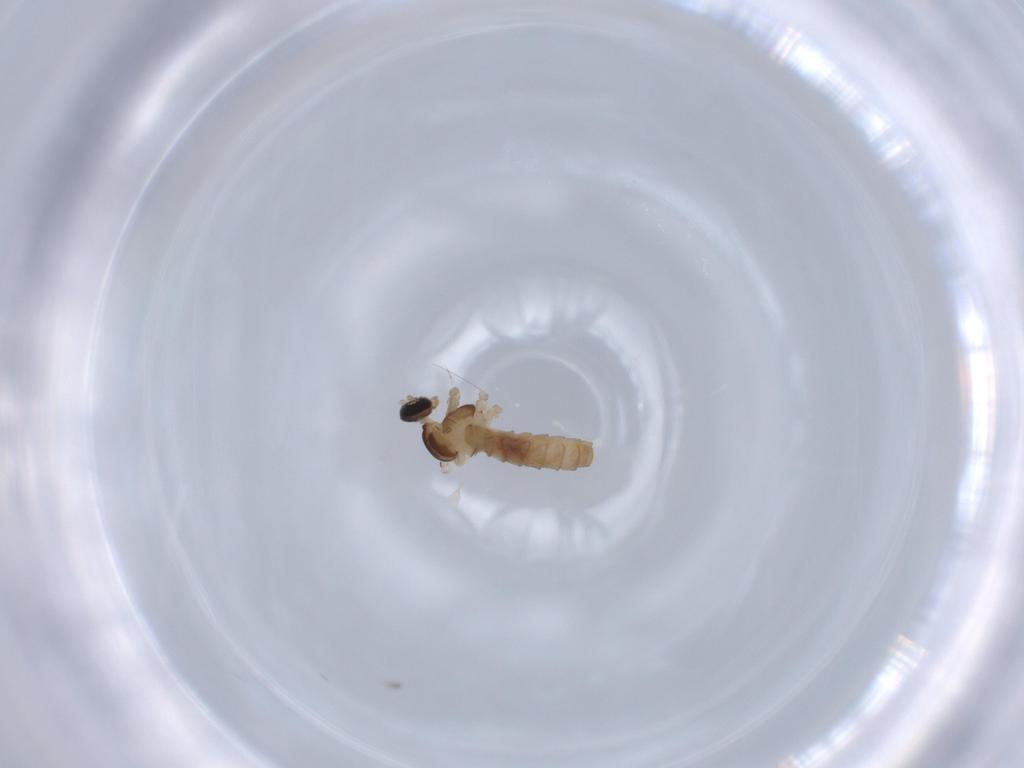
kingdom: Animalia
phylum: Arthropoda
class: Insecta
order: Diptera
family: Cecidomyiidae
